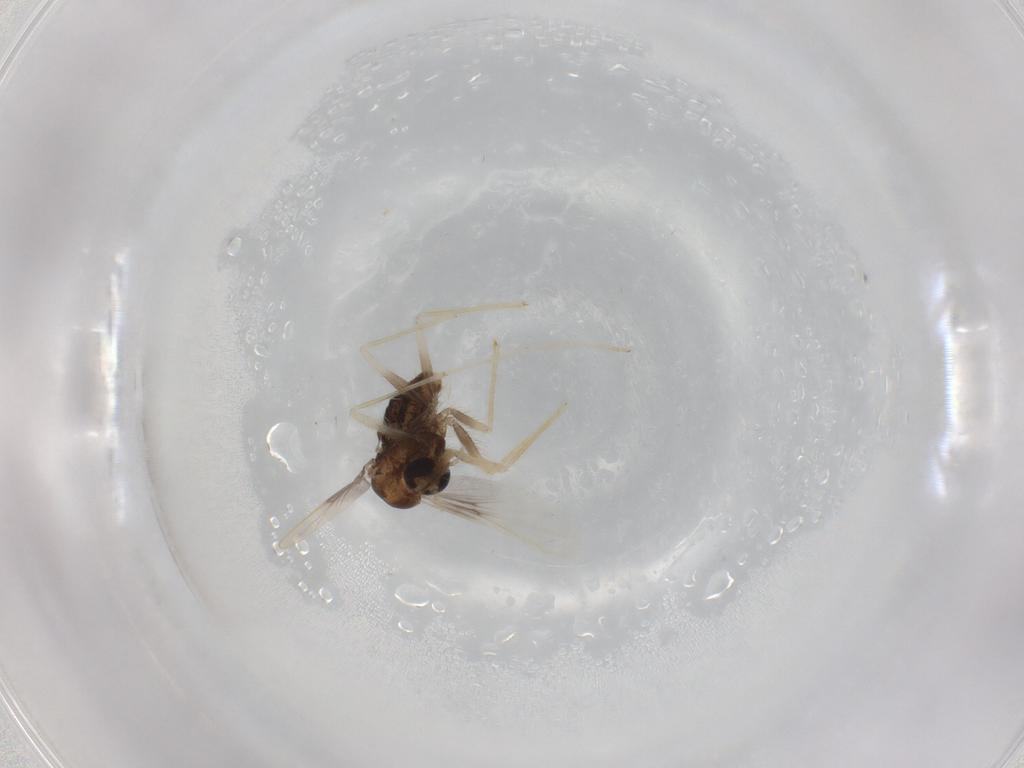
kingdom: Animalia
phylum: Arthropoda
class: Insecta
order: Diptera
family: Chironomidae
